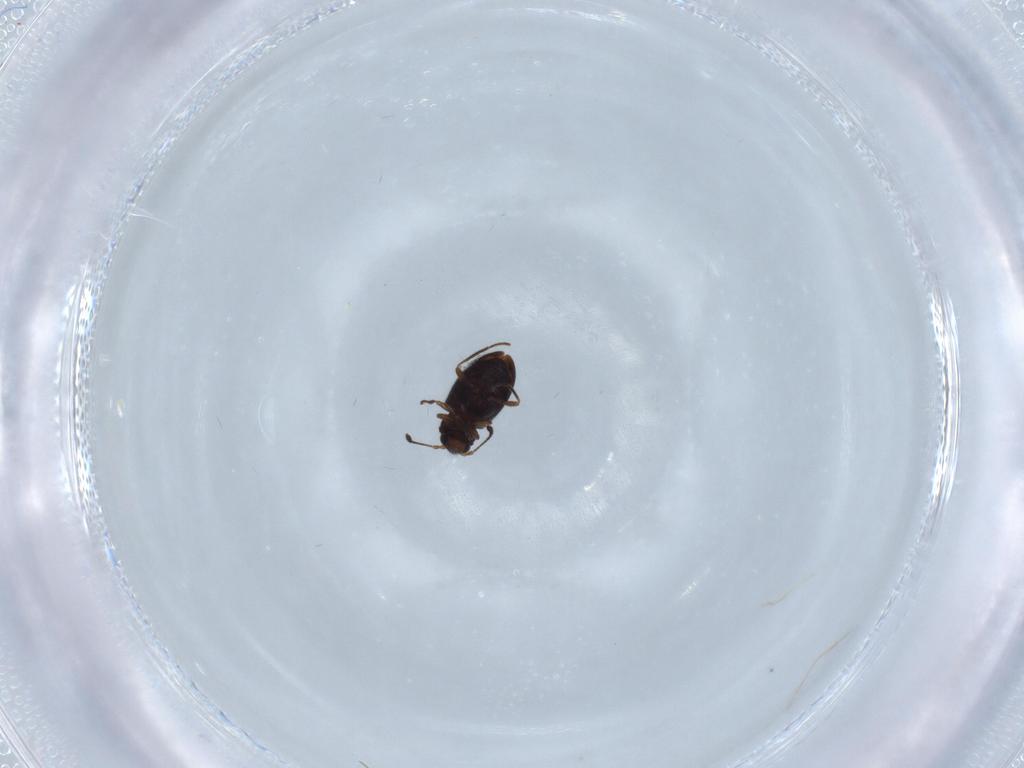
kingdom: Animalia
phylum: Arthropoda
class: Insecta
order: Coleoptera
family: Cryptophagidae
